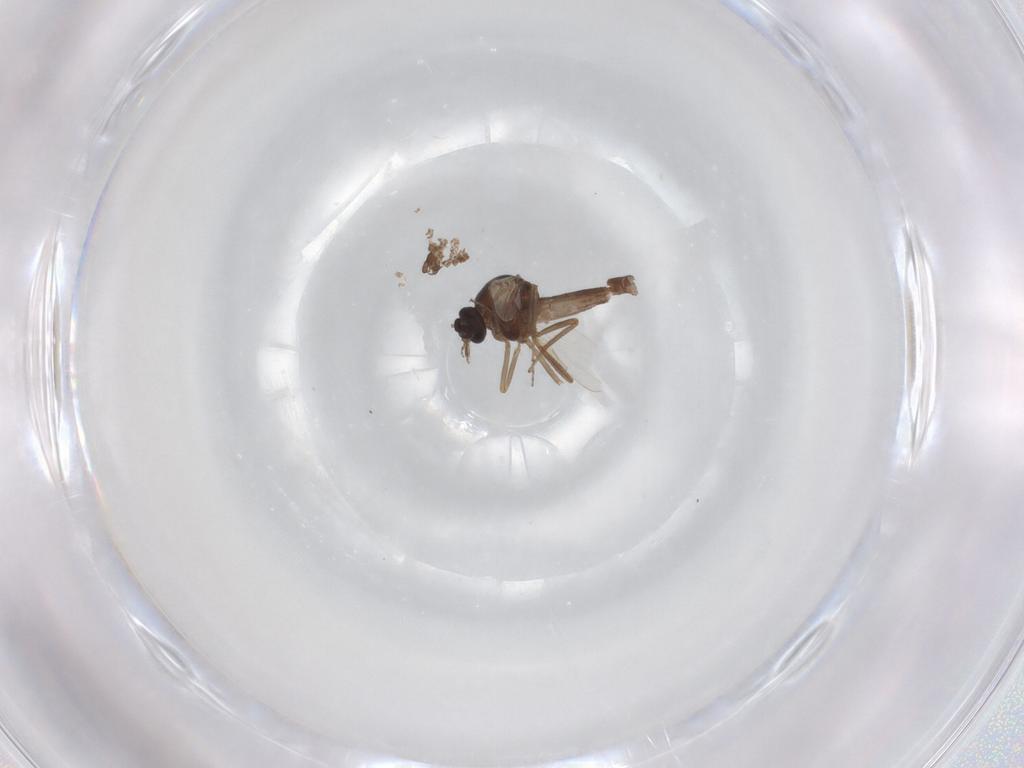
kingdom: Animalia
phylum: Arthropoda
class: Insecta
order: Diptera
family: Ceratopogonidae
